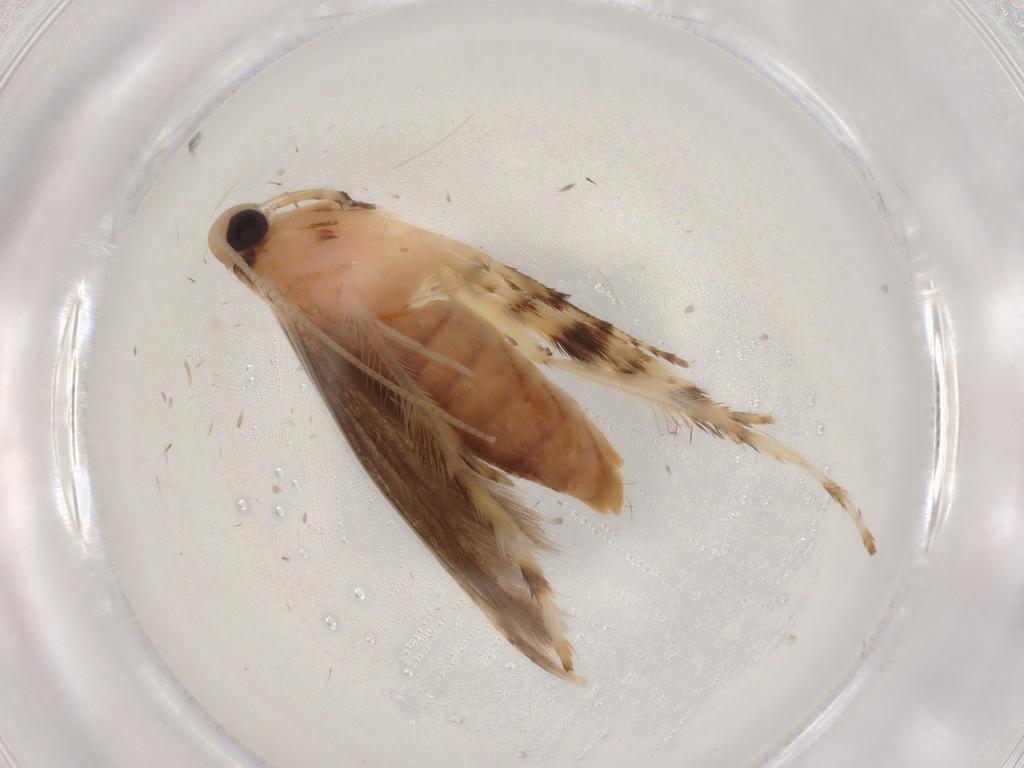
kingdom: Animalia
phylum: Arthropoda
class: Insecta
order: Lepidoptera
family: Gracillariidae
